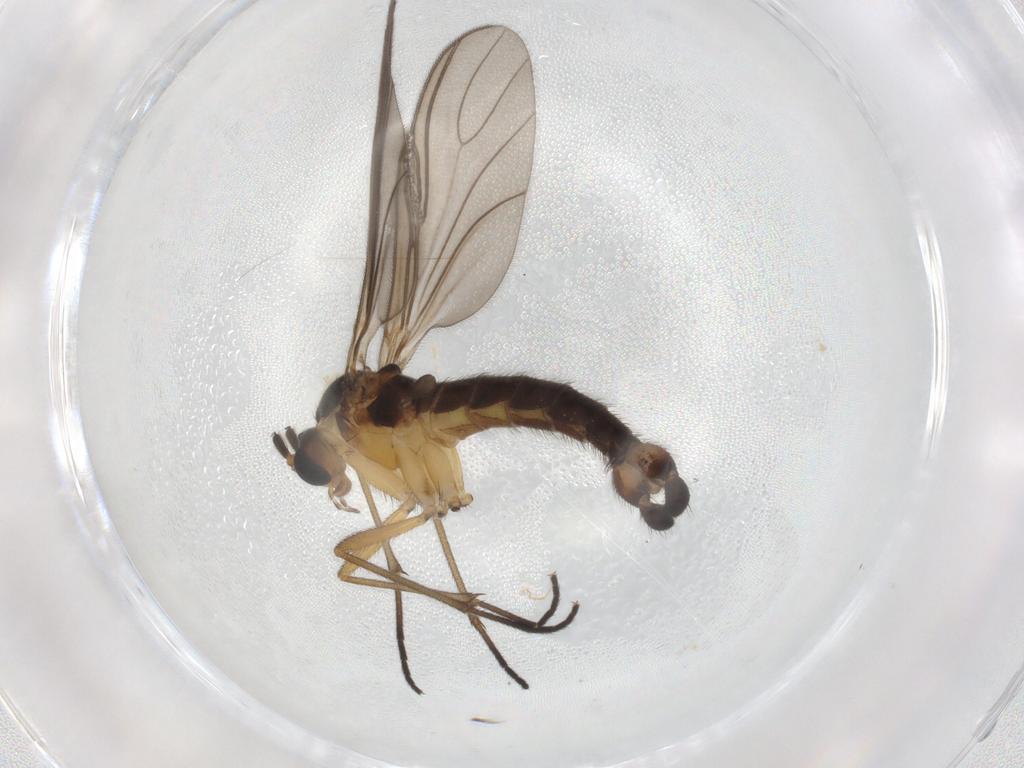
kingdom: Animalia
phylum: Arthropoda
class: Insecta
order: Diptera
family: Sciaridae
